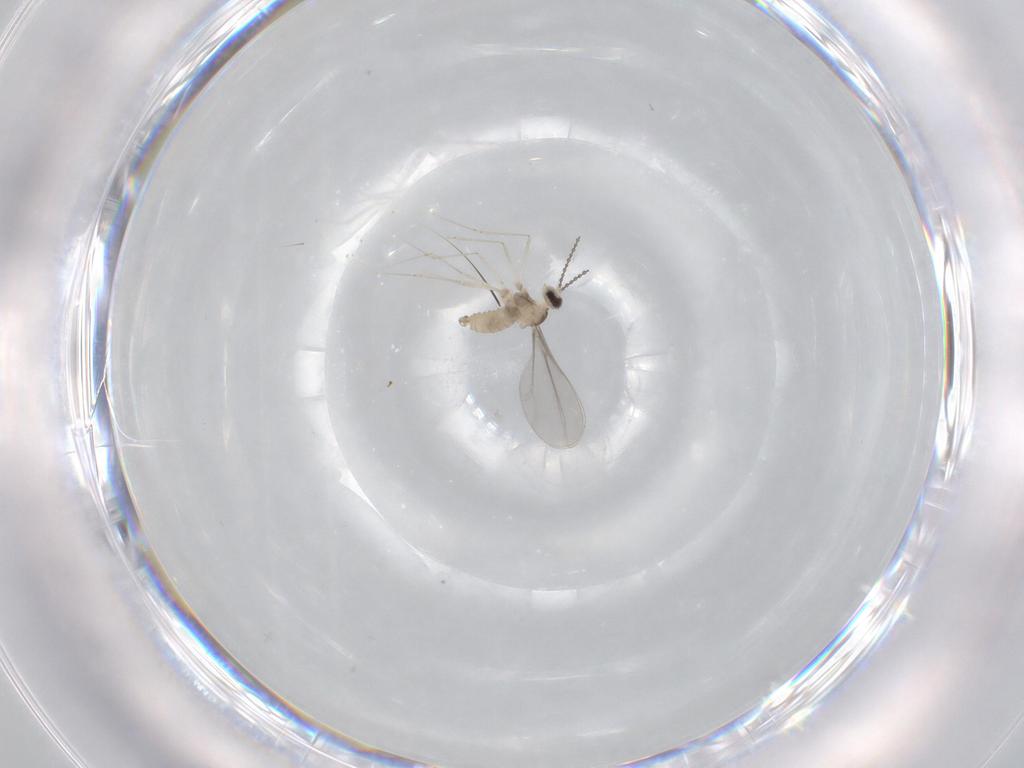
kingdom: Animalia
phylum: Arthropoda
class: Insecta
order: Diptera
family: Cecidomyiidae
